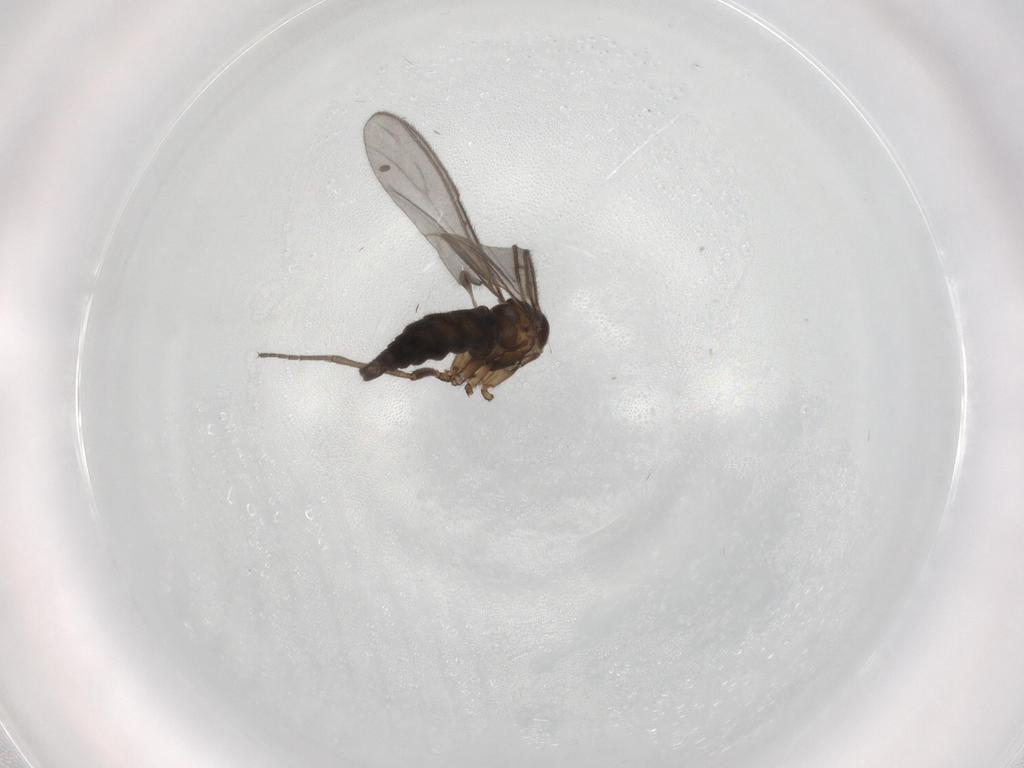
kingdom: Animalia
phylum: Arthropoda
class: Insecta
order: Diptera
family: Sciaridae
